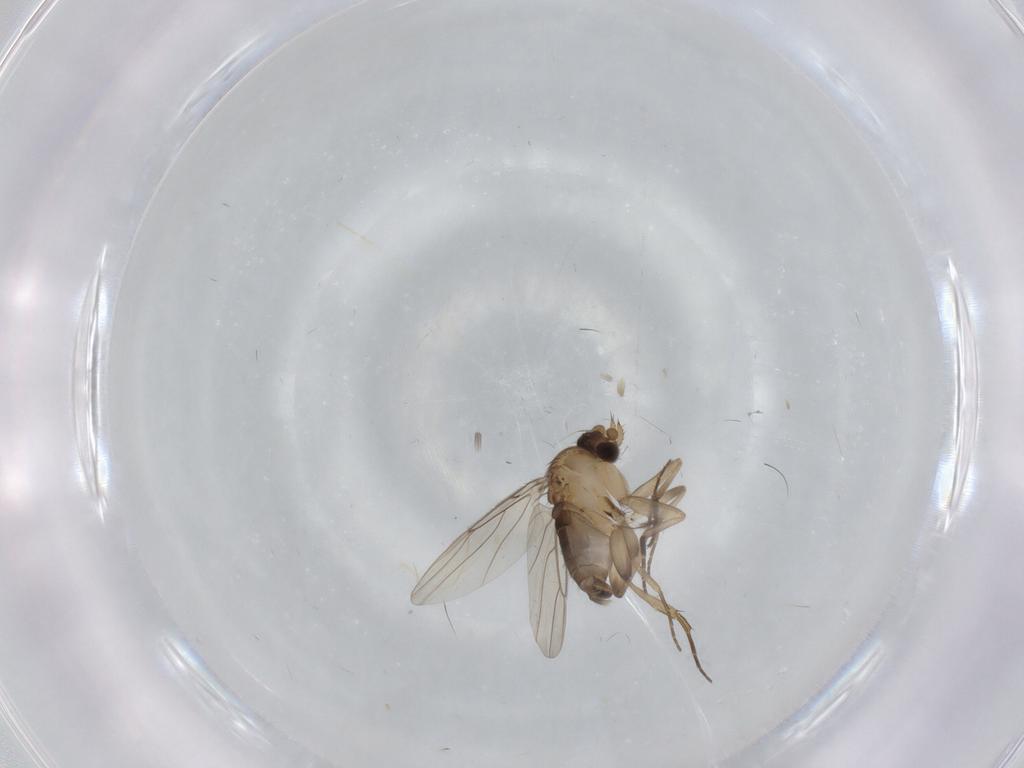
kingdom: Animalia
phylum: Arthropoda
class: Insecta
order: Diptera
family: Phoridae
